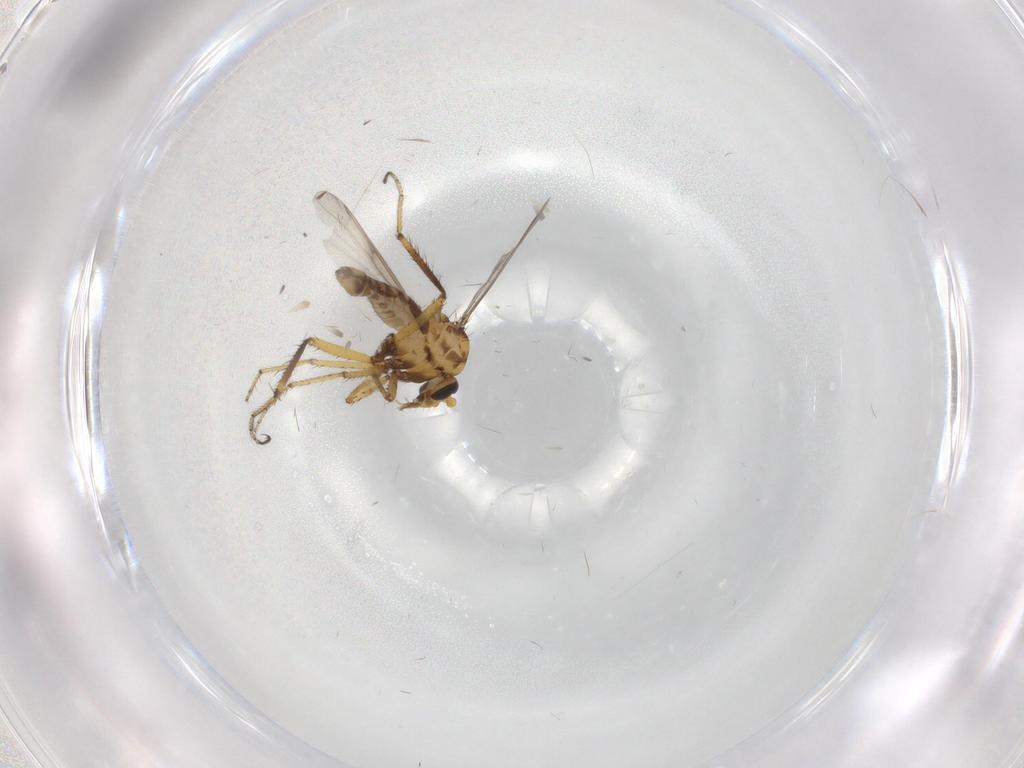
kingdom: Animalia
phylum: Arthropoda
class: Insecta
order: Diptera
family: Ceratopogonidae
